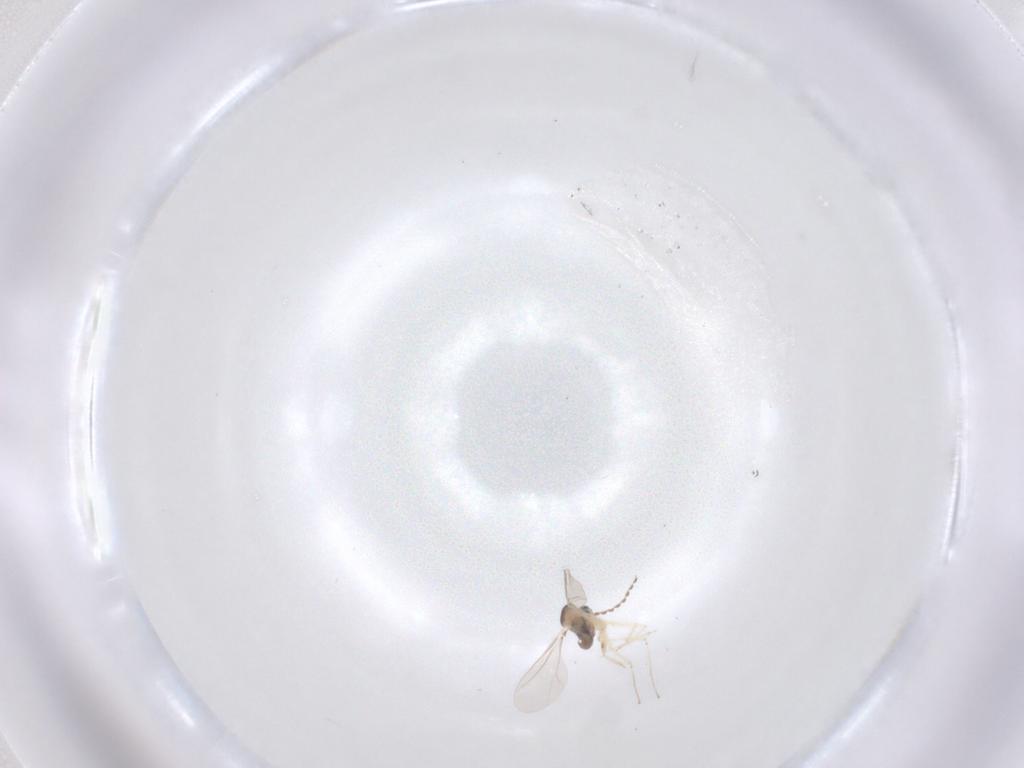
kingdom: Animalia
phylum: Arthropoda
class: Insecta
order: Diptera
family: Cecidomyiidae
